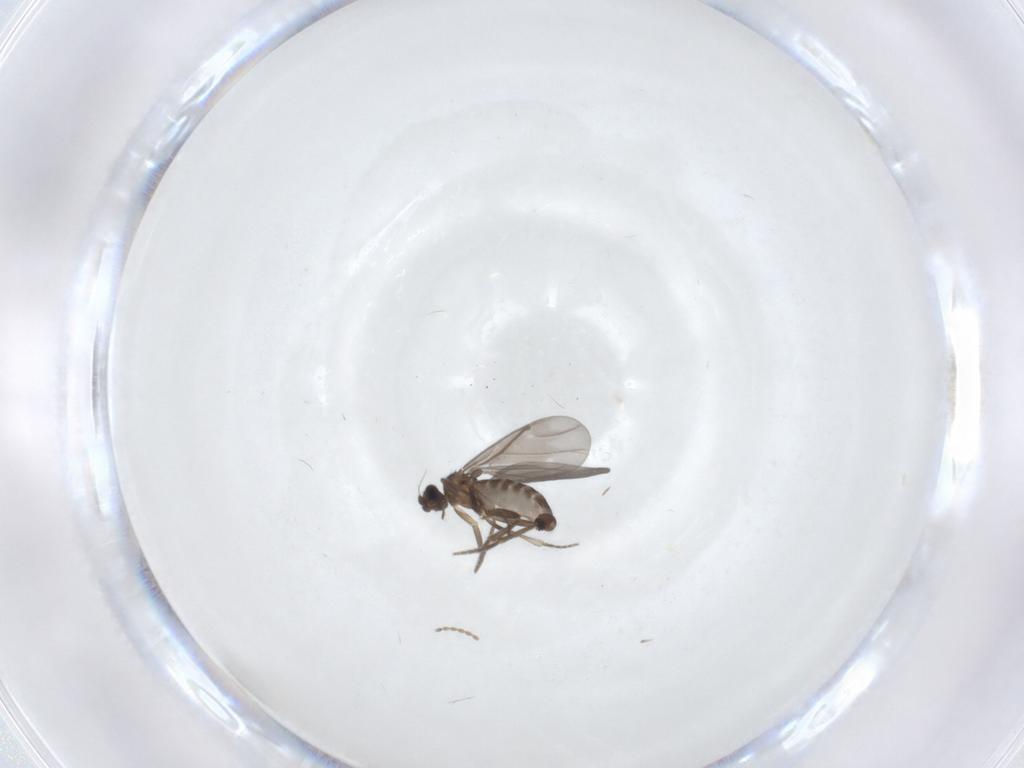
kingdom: Animalia
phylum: Arthropoda
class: Insecta
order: Diptera
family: Phoridae
